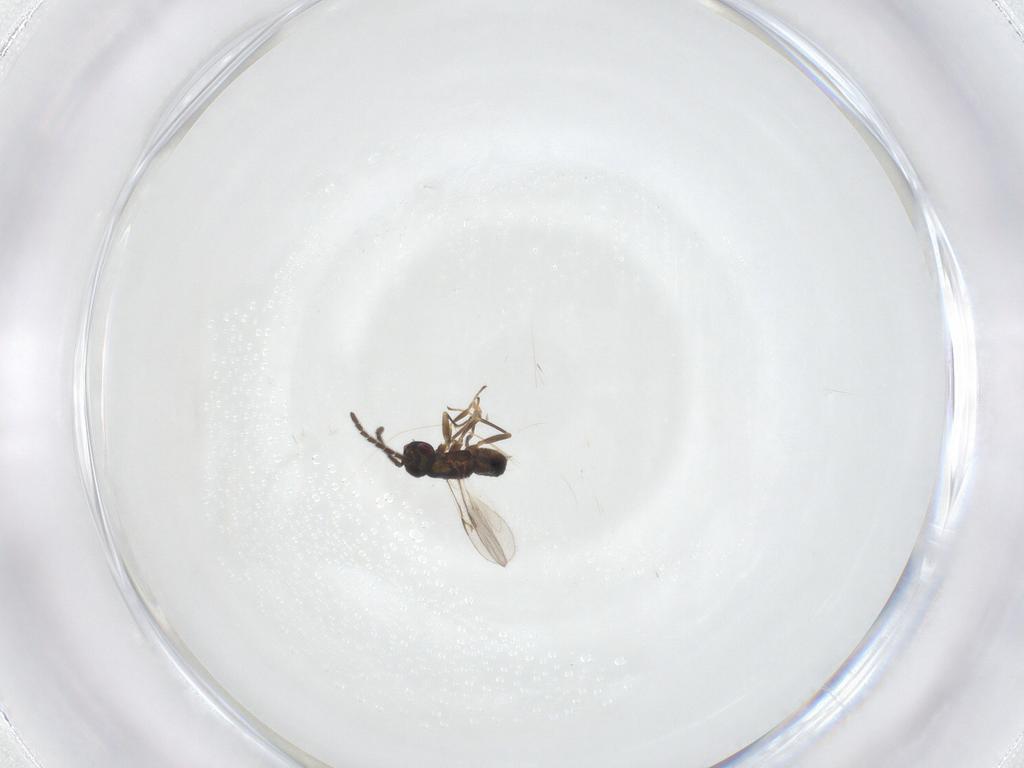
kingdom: Animalia
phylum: Arthropoda
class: Insecta
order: Hymenoptera
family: Encyrtidae
